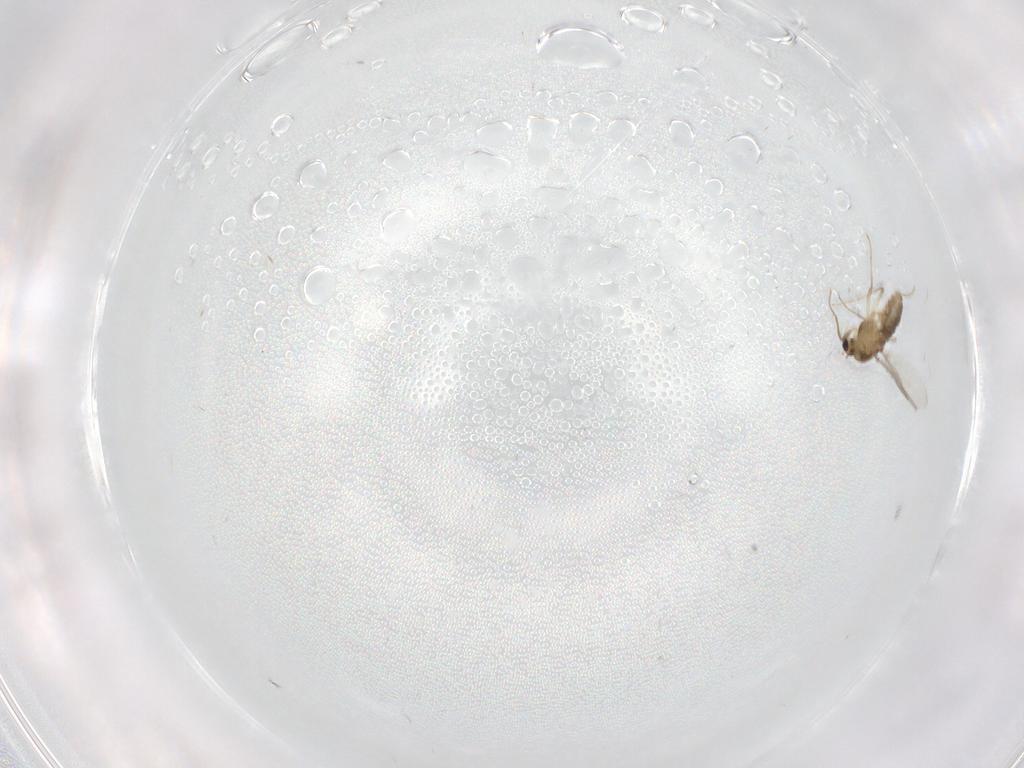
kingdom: Animalia
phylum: Arthropoda
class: Insecta
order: Diptera
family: Chironomidae
